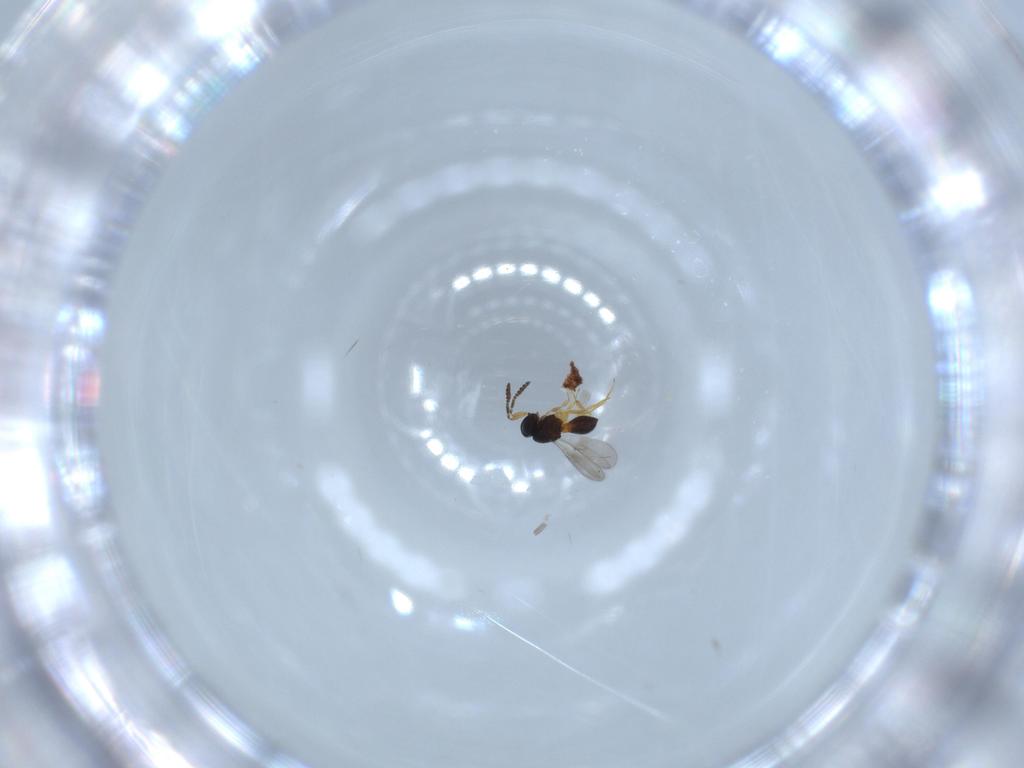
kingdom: Animalia
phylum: Arthropoda
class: Insecta
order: Hymenoptera
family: Scelionidae
